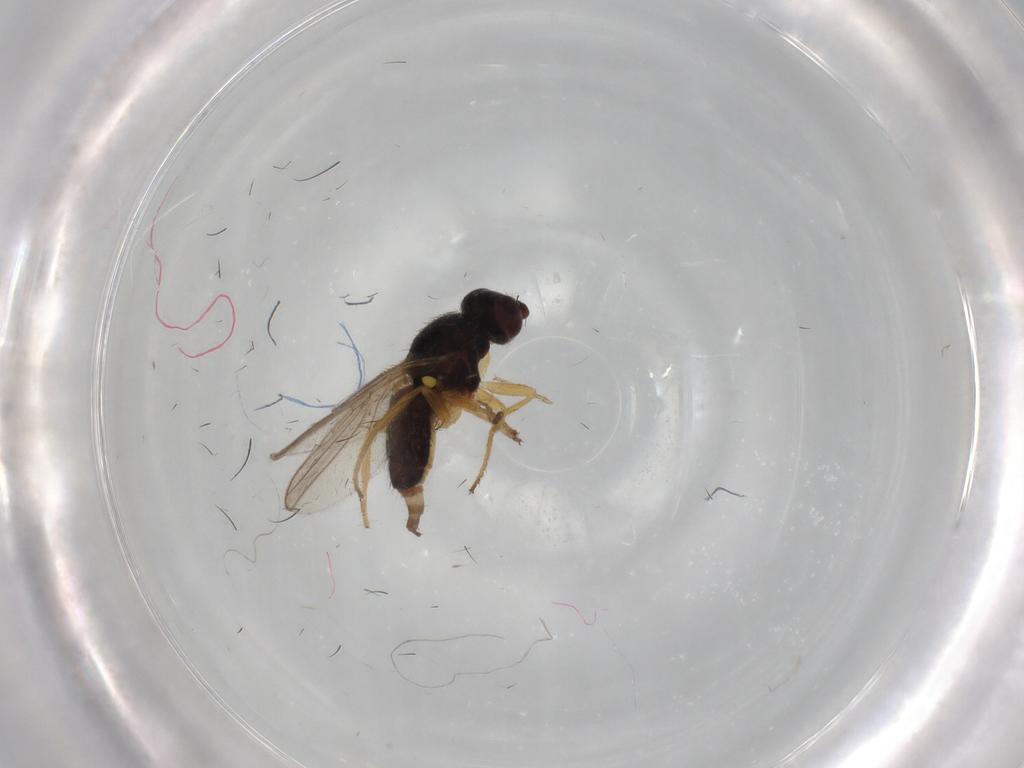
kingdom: Animalia
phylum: Arthropoda
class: Insecta
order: Diptera
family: Chloropidae
